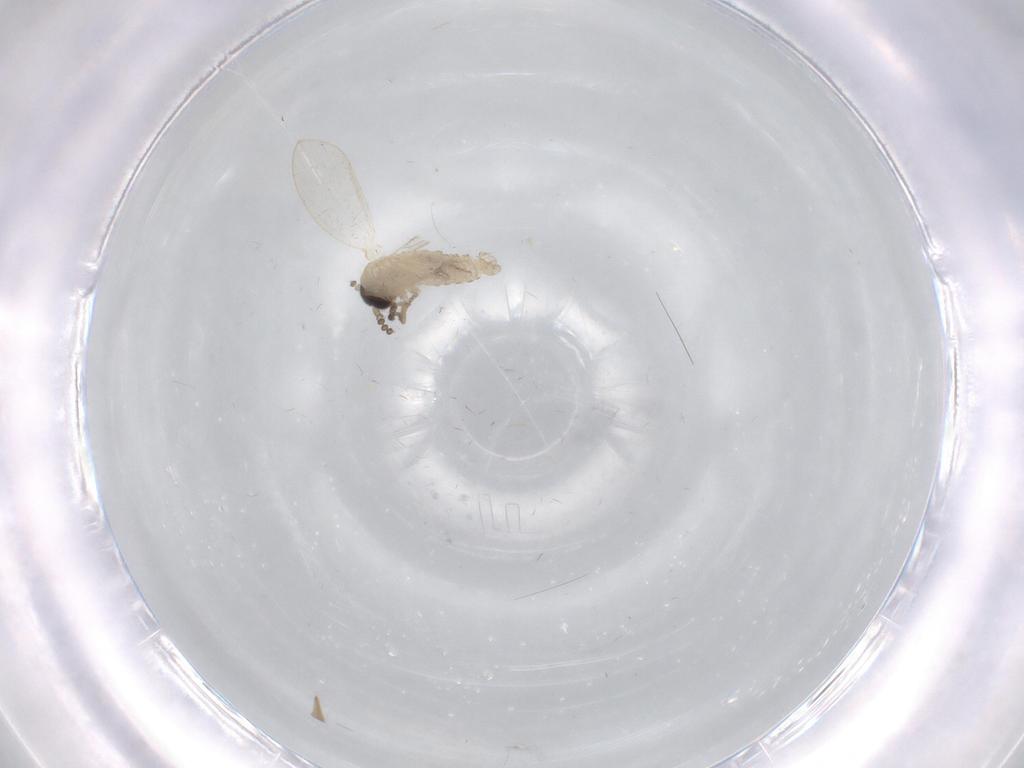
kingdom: Animalia
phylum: Arthropoda
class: Insecta
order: Diptera
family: Psychodidae
